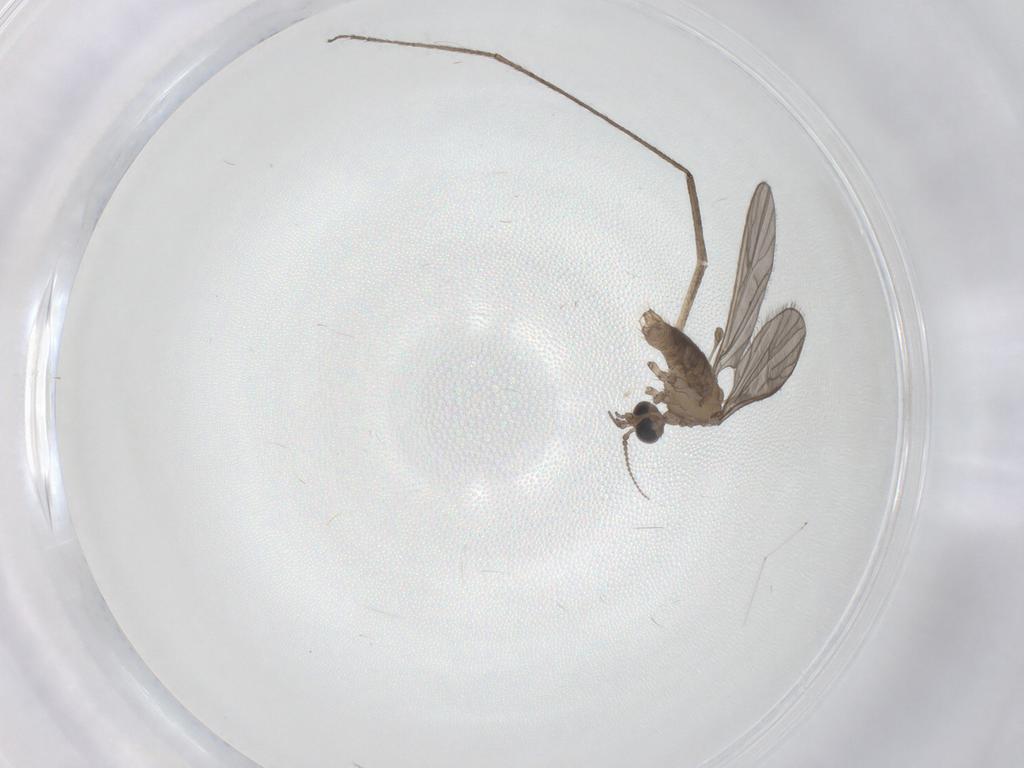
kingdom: Animalia
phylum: Arthropoda
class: Insecta
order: Diptera
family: Limoniidae
